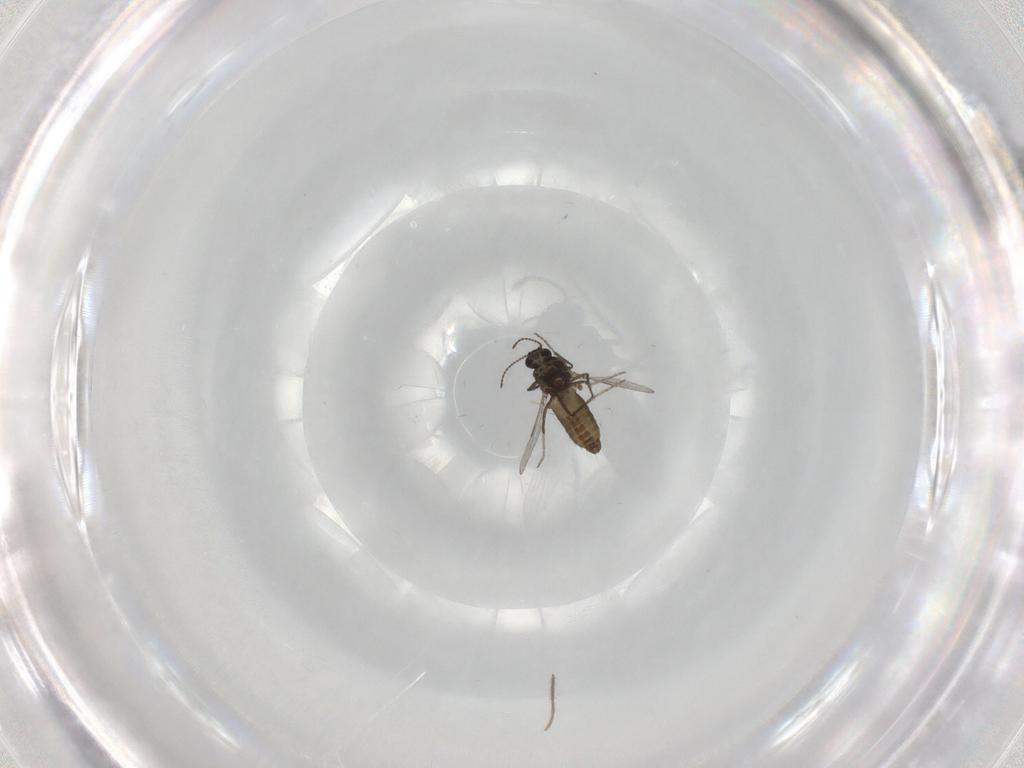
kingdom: Animalia
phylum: Arthropoda
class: Insecta
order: Diptera
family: Ceratopogonidae
